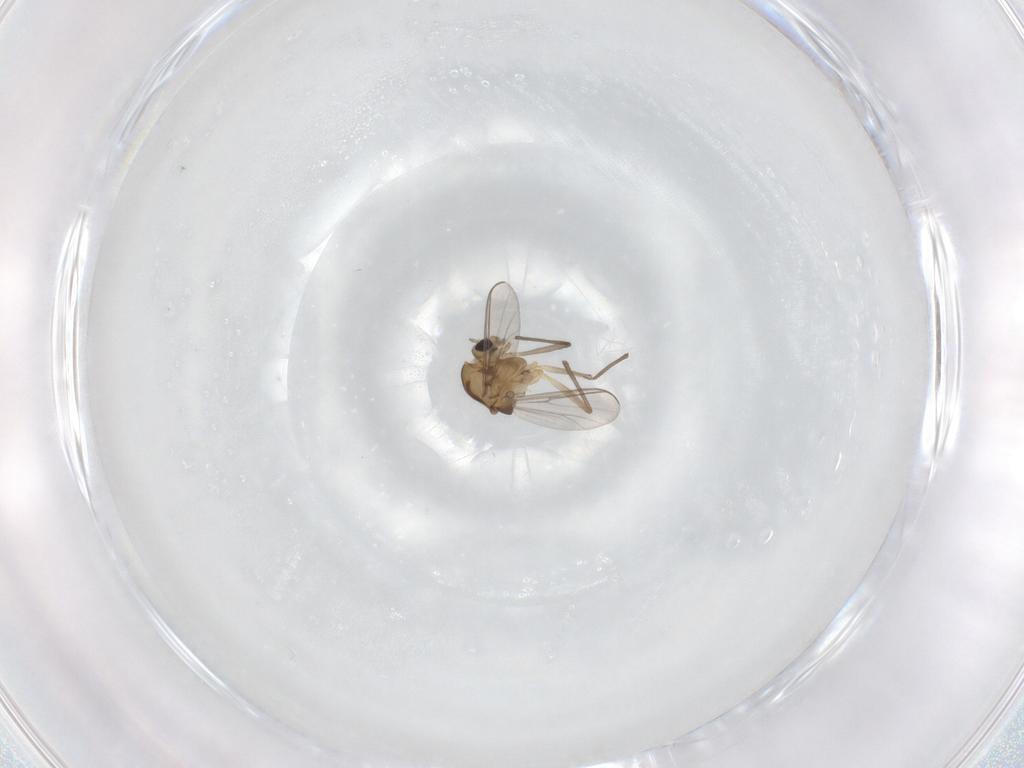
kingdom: Animalia
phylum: Arthropoda
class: Insecta
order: Diptera
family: Chironomidae
